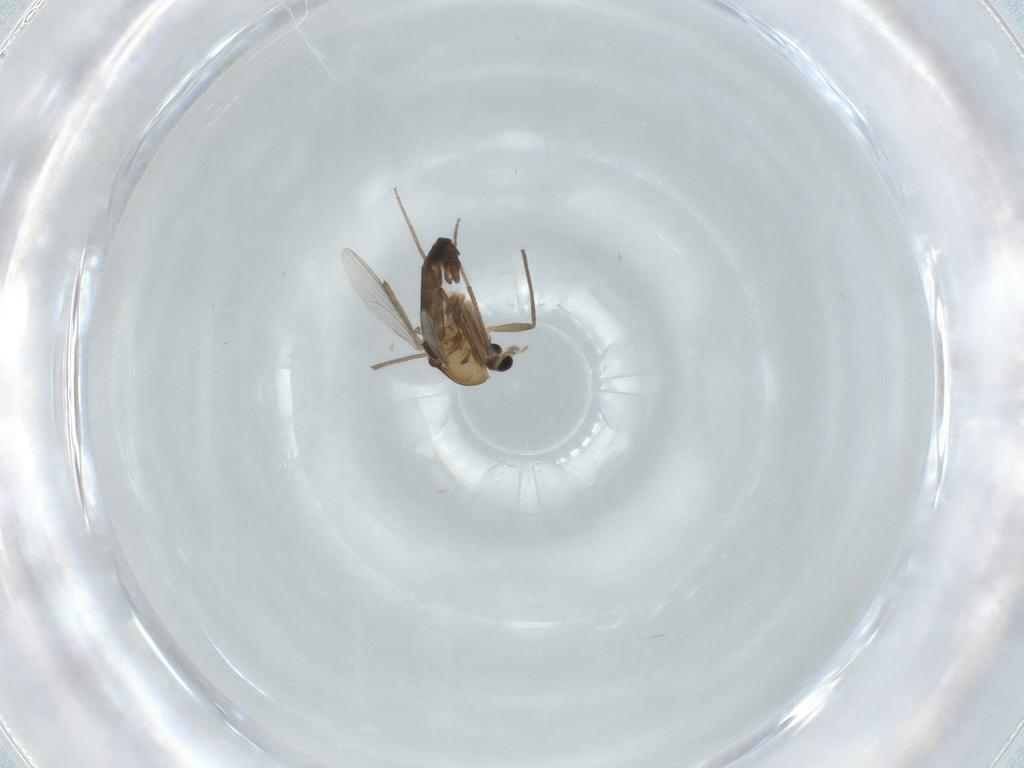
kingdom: Animalia
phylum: Arthropoda
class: Insecta
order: Diptera
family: Chironomidae
